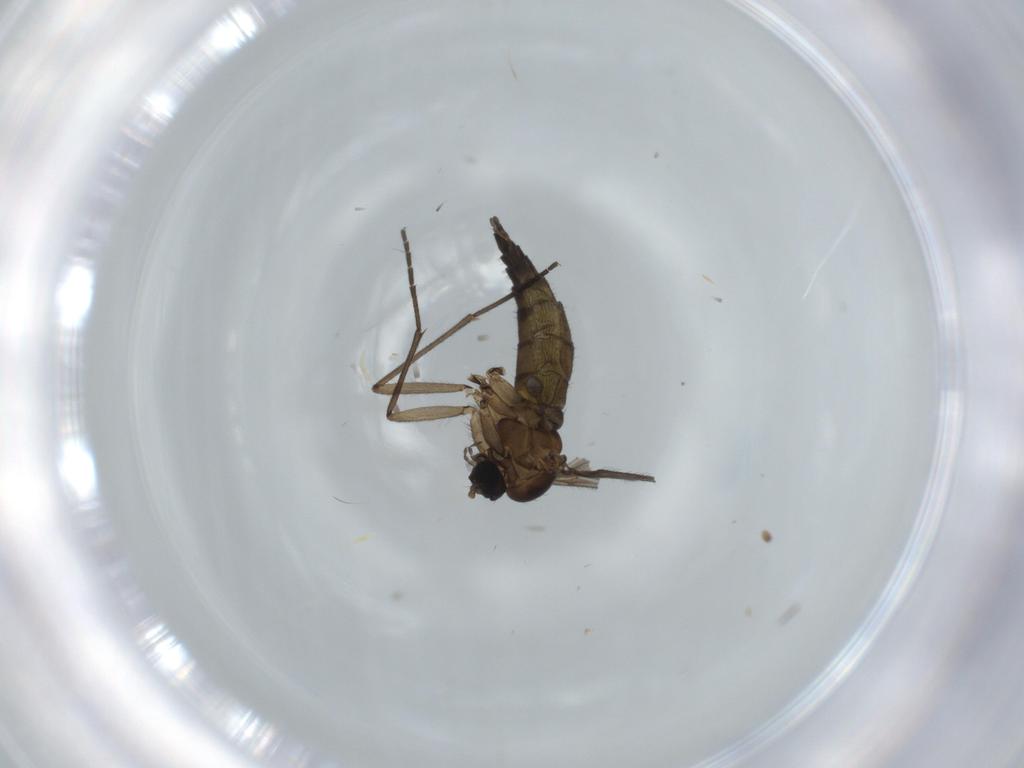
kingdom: Animalia
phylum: Arthropoda
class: Insecta
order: Diptera
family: Sciaridae
